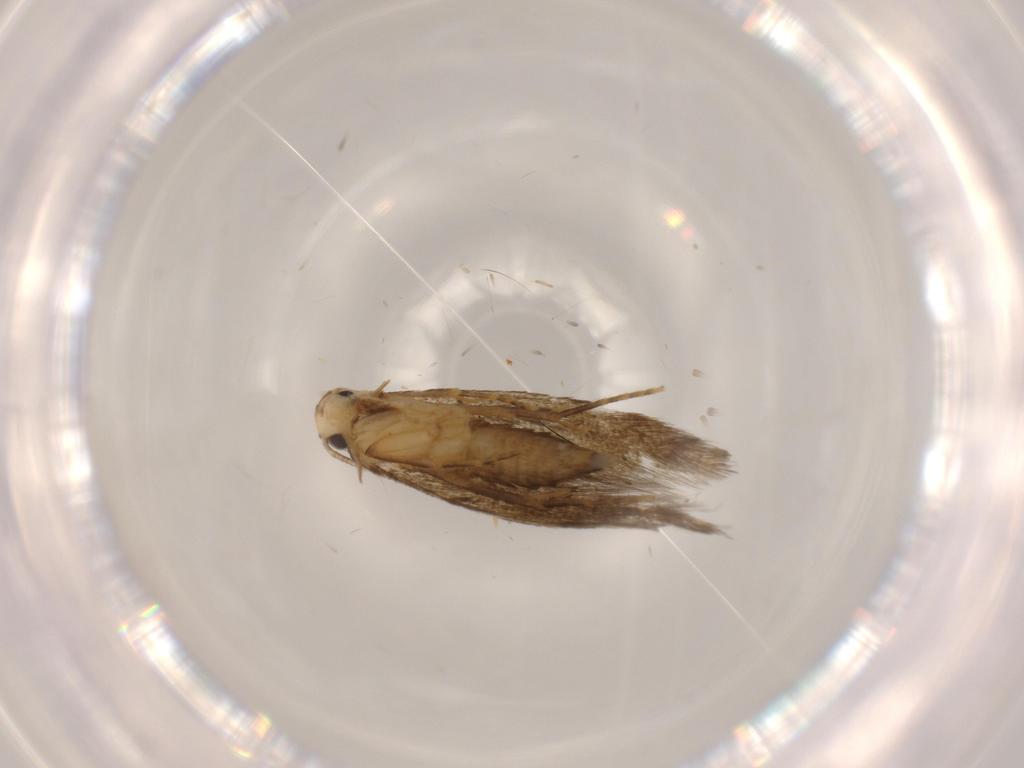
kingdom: Animalia
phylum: Arthropoda
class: Insecta
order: Lepidoptera
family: Tineidae
